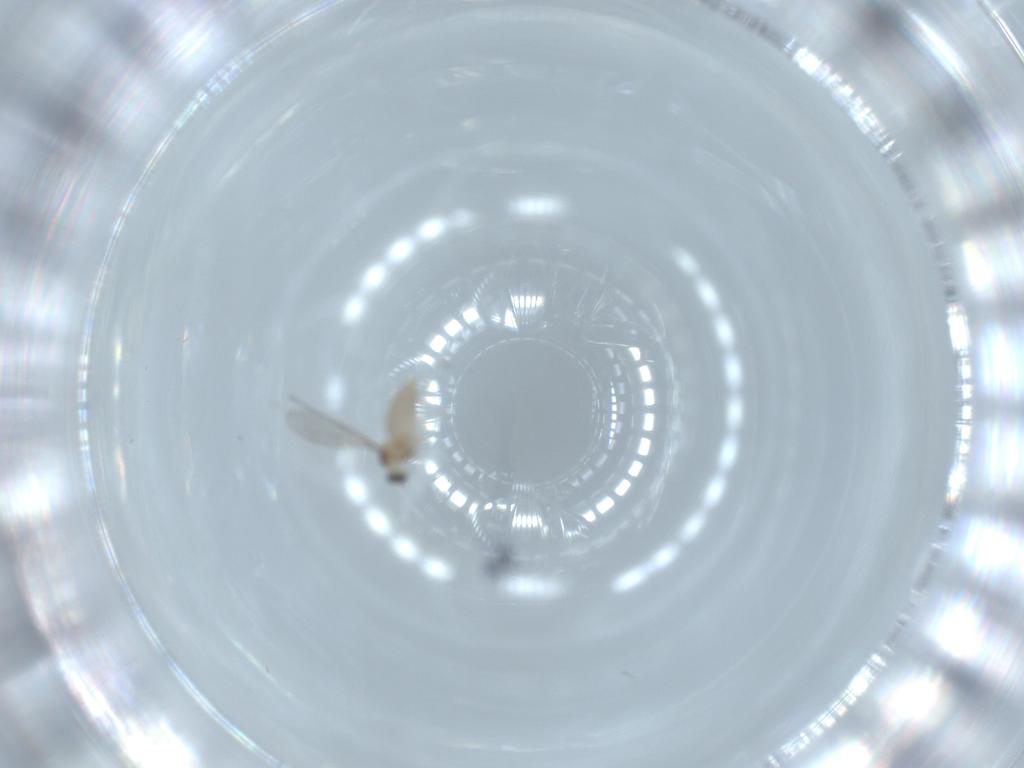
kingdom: Animalia
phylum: Arthropoda
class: Insecta
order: Diptera
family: Cecidomyiidae
